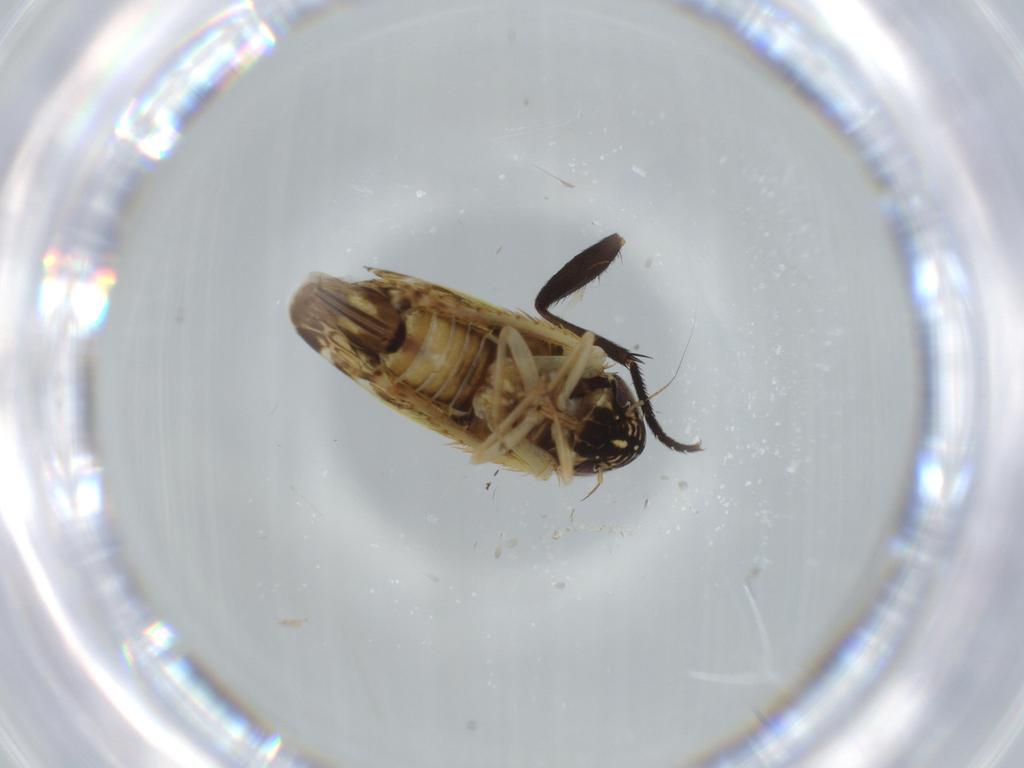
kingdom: Animalia
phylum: Arthropoda
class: Insecta
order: Hemiptera
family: Cicadellidae
